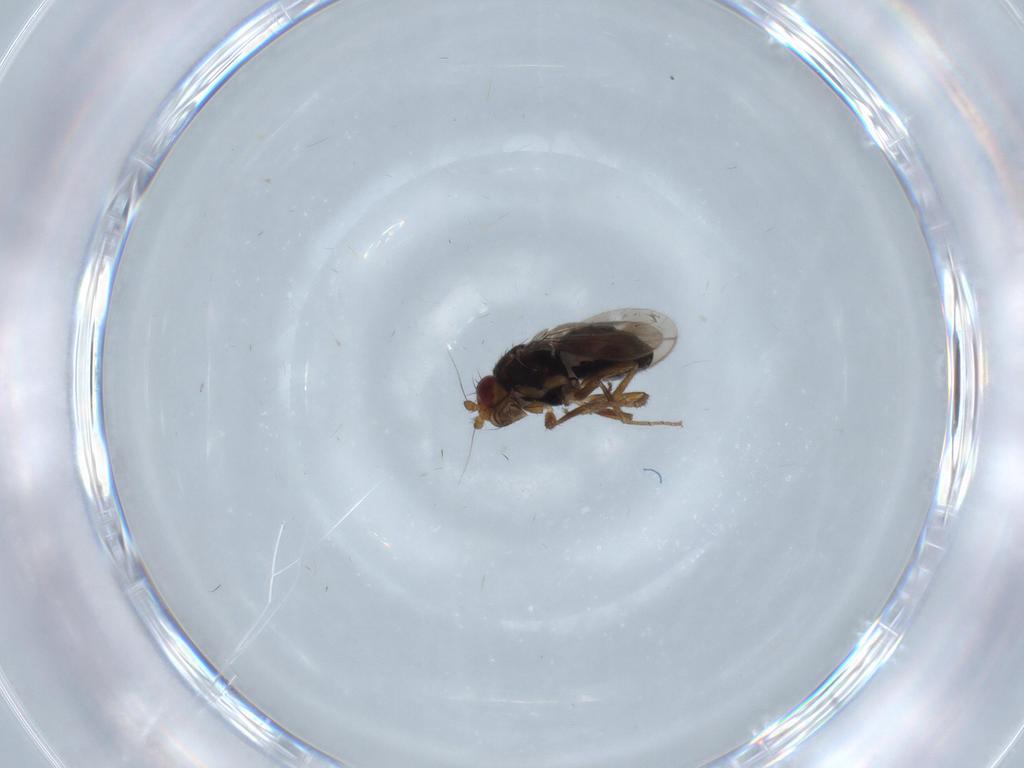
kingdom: Animalia
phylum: Arthropoda
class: Insecta
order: Diptera
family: Sphaeroceridae
